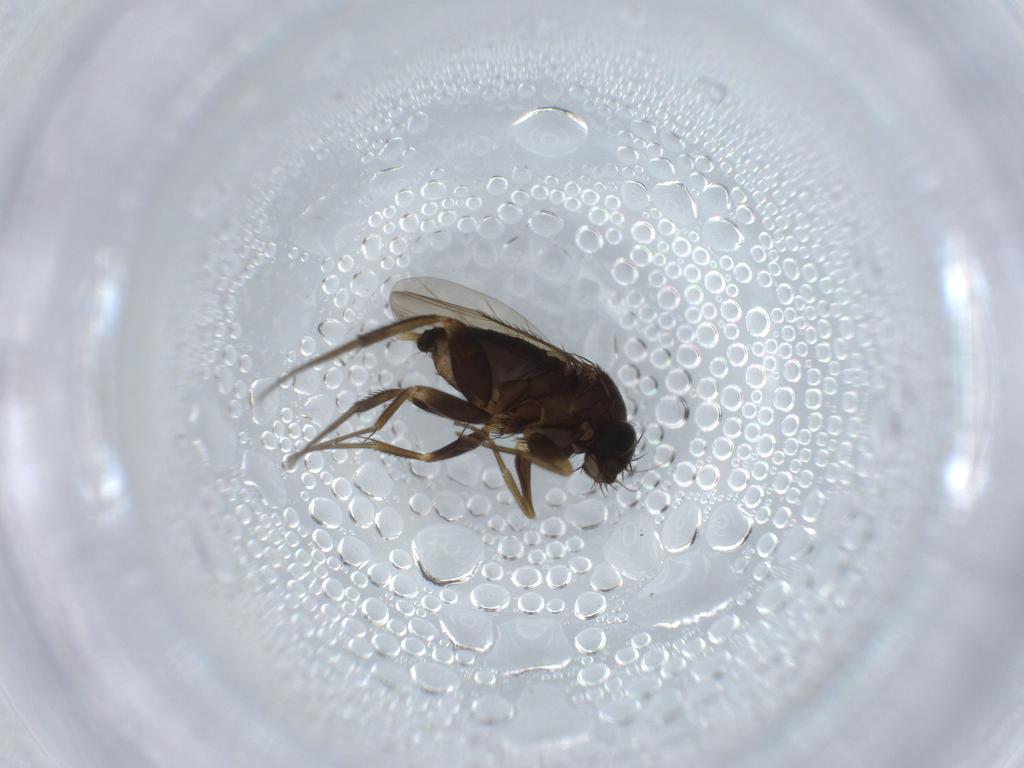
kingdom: Animalia
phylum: Arthropoda
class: Insecta
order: Diptera
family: Phoridae
